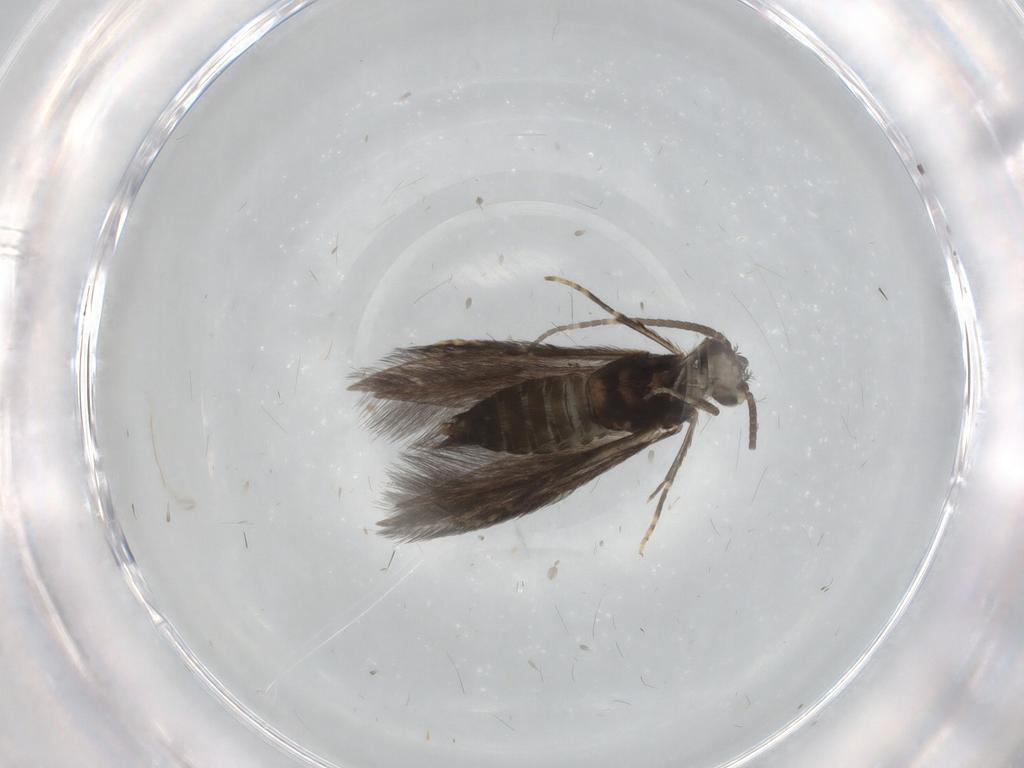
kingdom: Animalia
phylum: Arthropoda
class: Insecta
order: Trichoptera
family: Hydroptilidae
